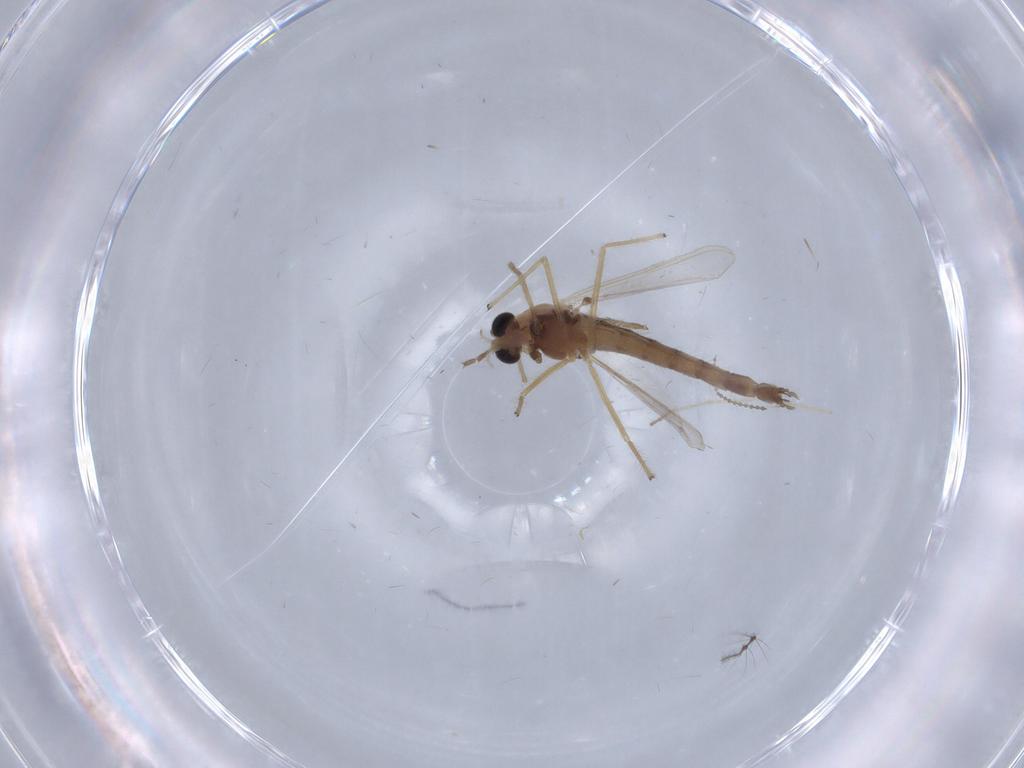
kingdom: Animalia
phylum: Arthropoda
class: Insecta
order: Diptera
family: Chironomidae
